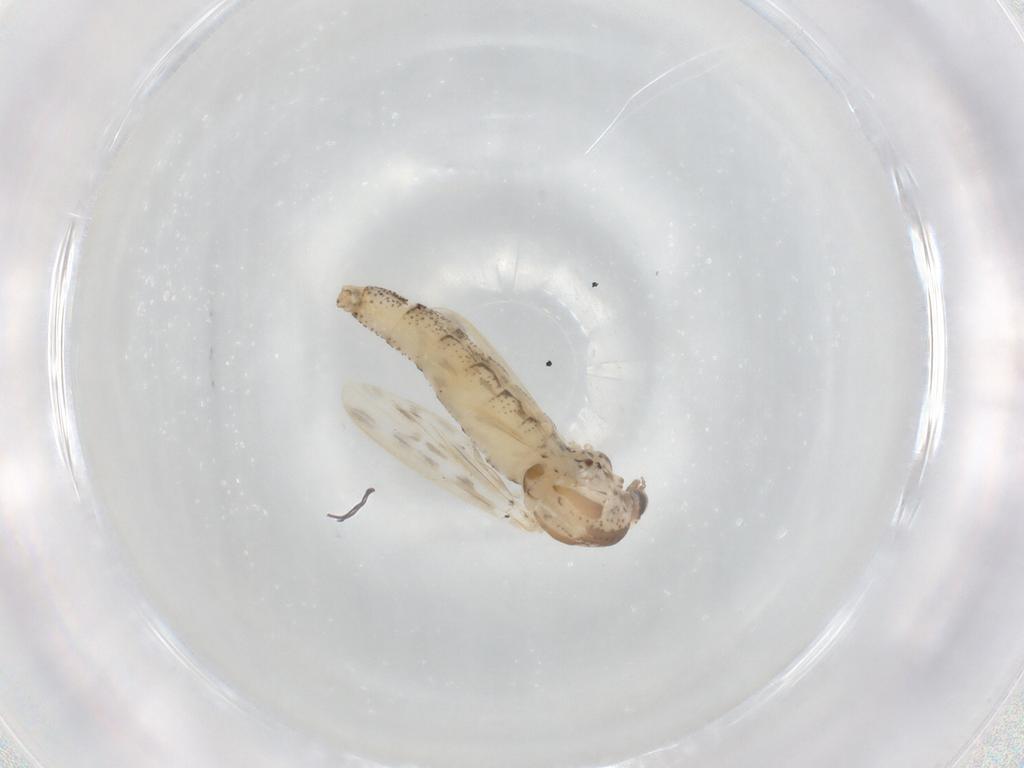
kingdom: Animalia
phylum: Arthropoda
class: Insecta
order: Diptera
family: Chaoboridae
